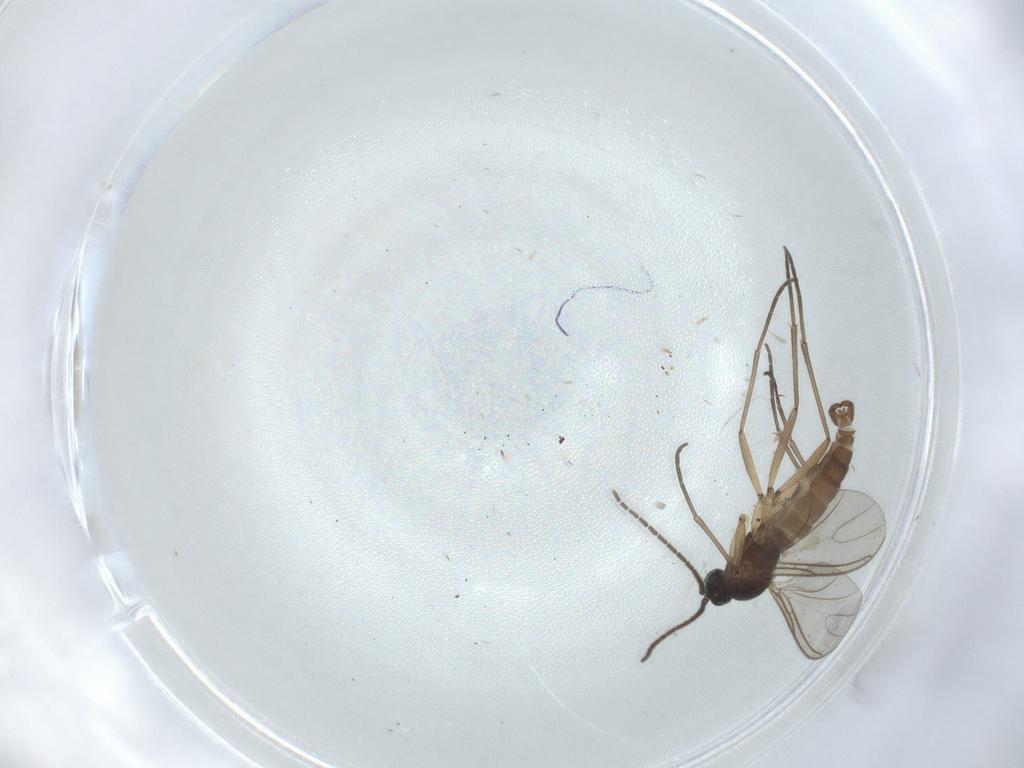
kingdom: Animalia
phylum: Arthropoda
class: Insecta
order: Diptera
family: Sciaridae
